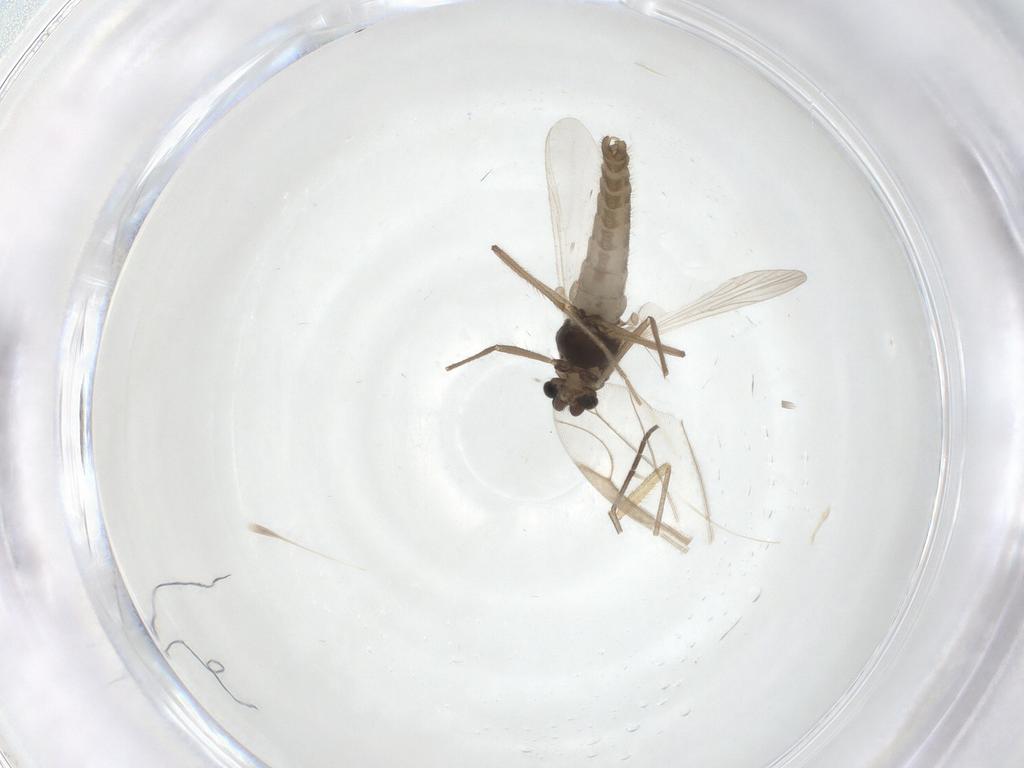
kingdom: Animalia
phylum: Arthropoda
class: Insecta
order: Diptera
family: Chironomidae
